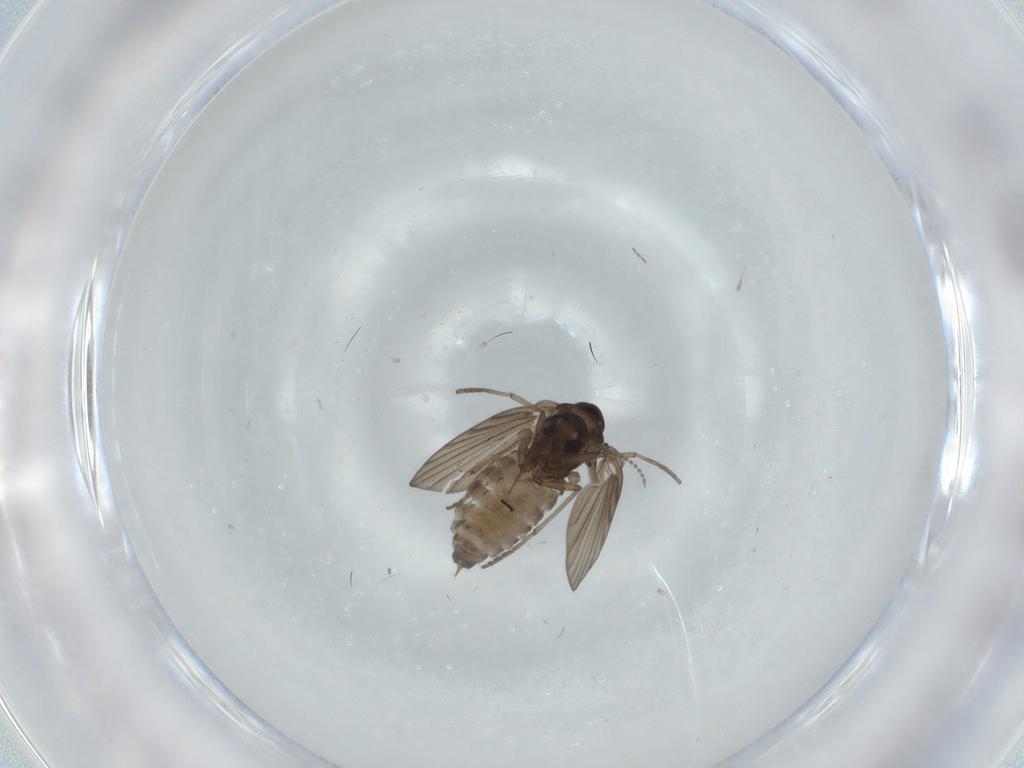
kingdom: Animalia
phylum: Arthropoda
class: Insecta
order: Diptera
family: Psychodidae
